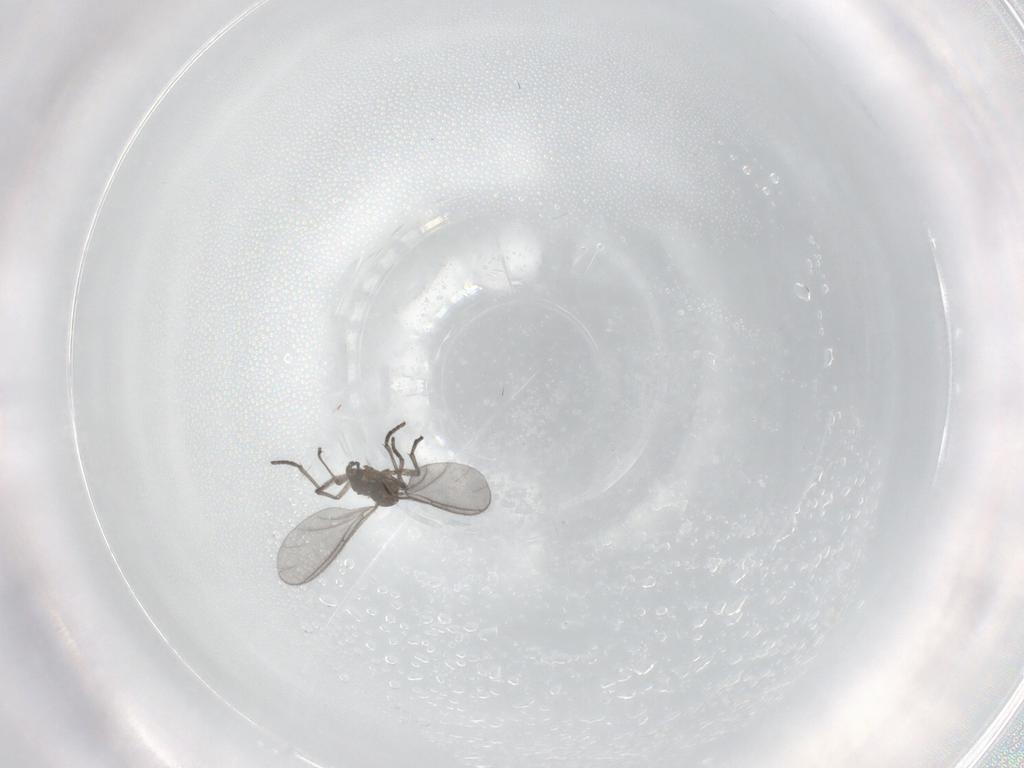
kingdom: Animalia
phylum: Arthropoda
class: Insecta
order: Diptera
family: Sciaridae
